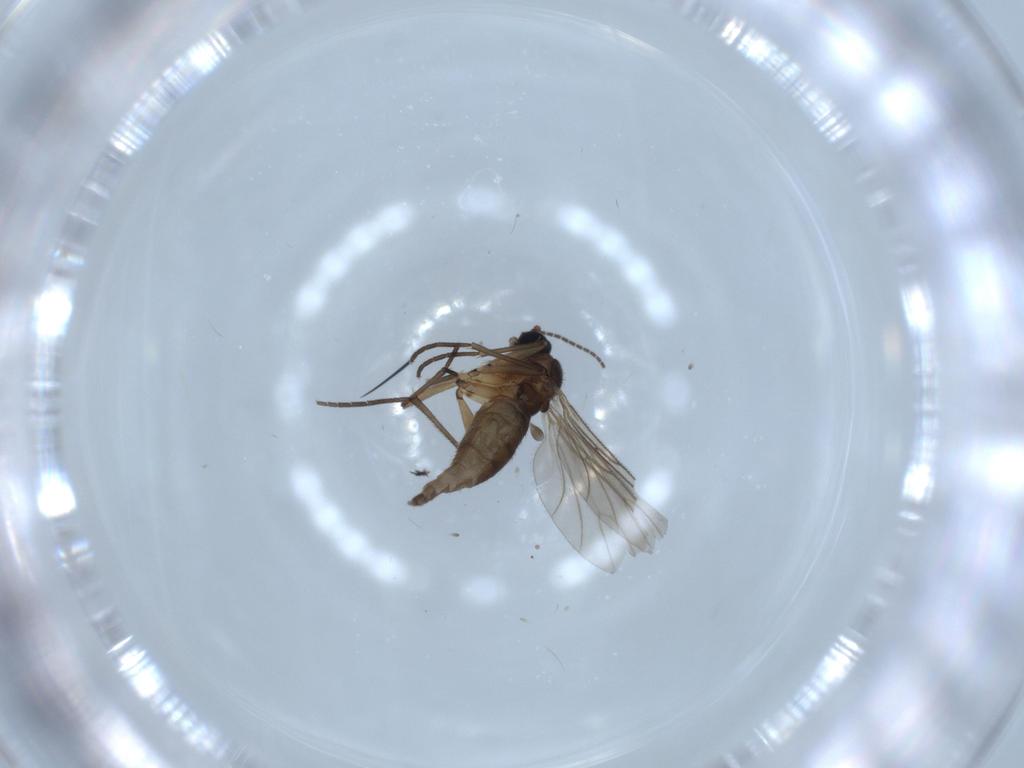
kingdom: Animalia
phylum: Arthropoda
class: Insecta
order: Diptera
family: Sciaridae
